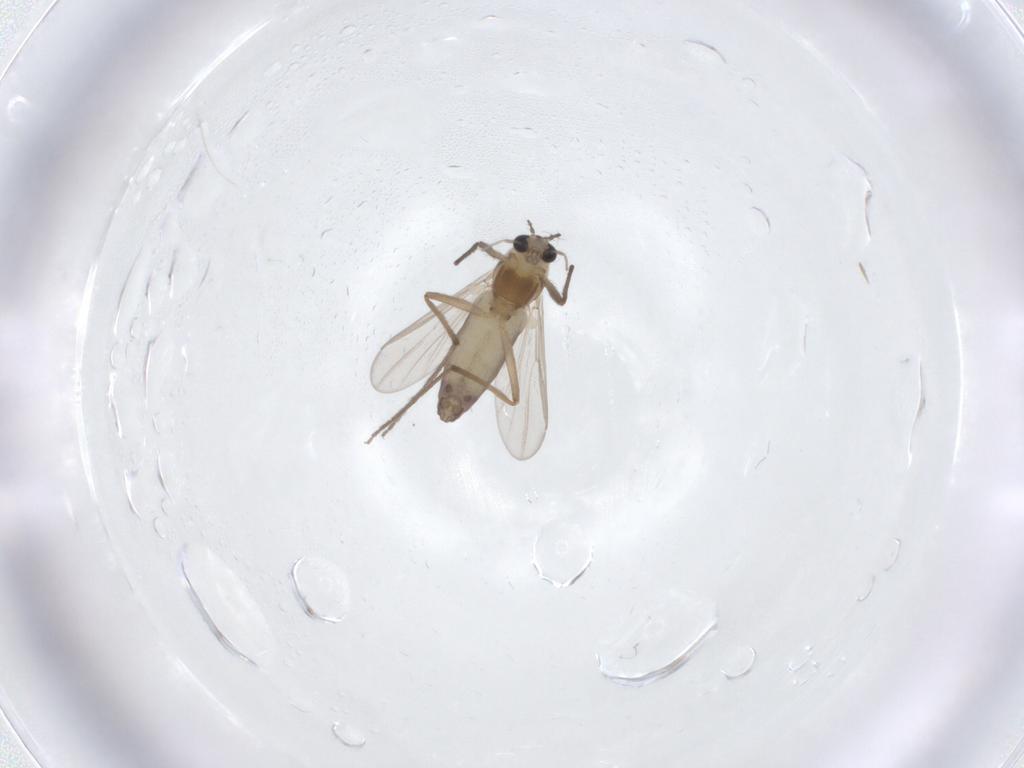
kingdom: Animalia
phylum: Arthropoda
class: Insecta
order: Diptera
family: Chironomidae
